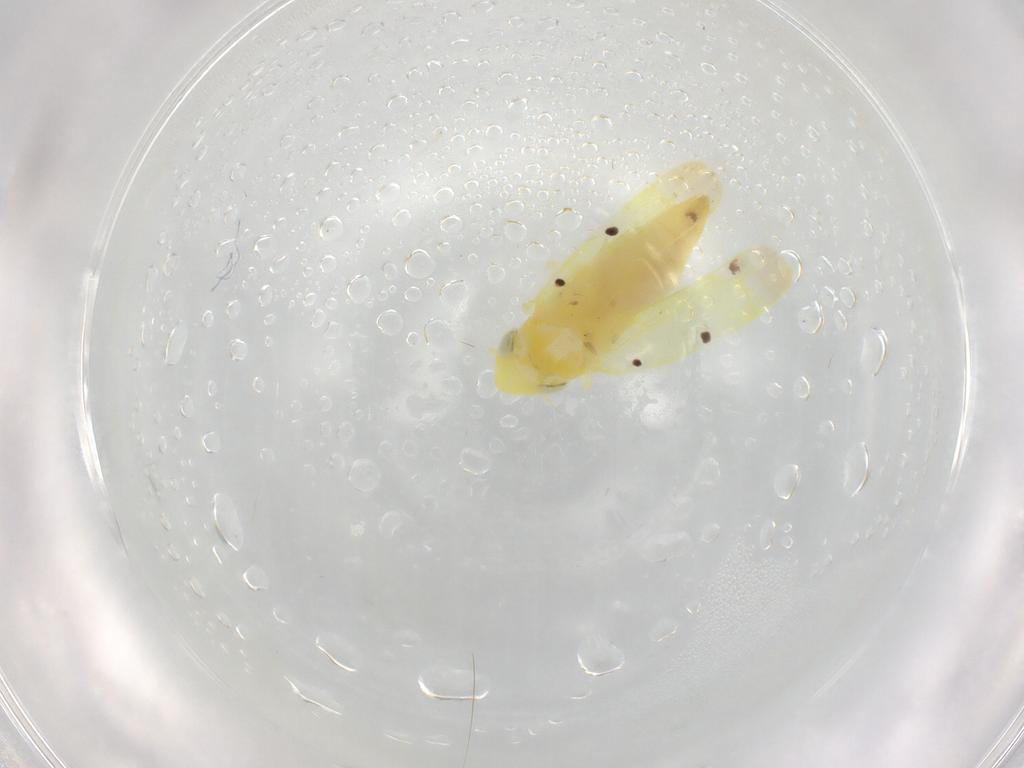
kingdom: Animalia
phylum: Arthropoda
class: Insecta
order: Hemiptera
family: Cicadellidae
